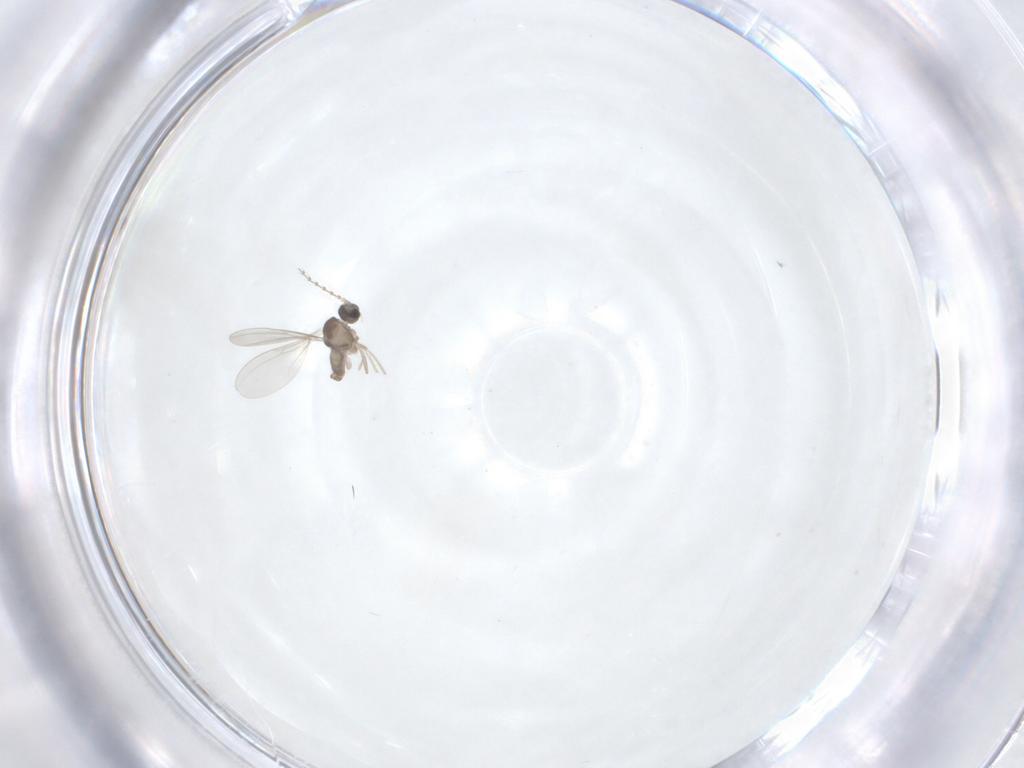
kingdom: Animalia
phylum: Arthropoda
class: Insecta
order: Diptera
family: Cecidomyiidae
